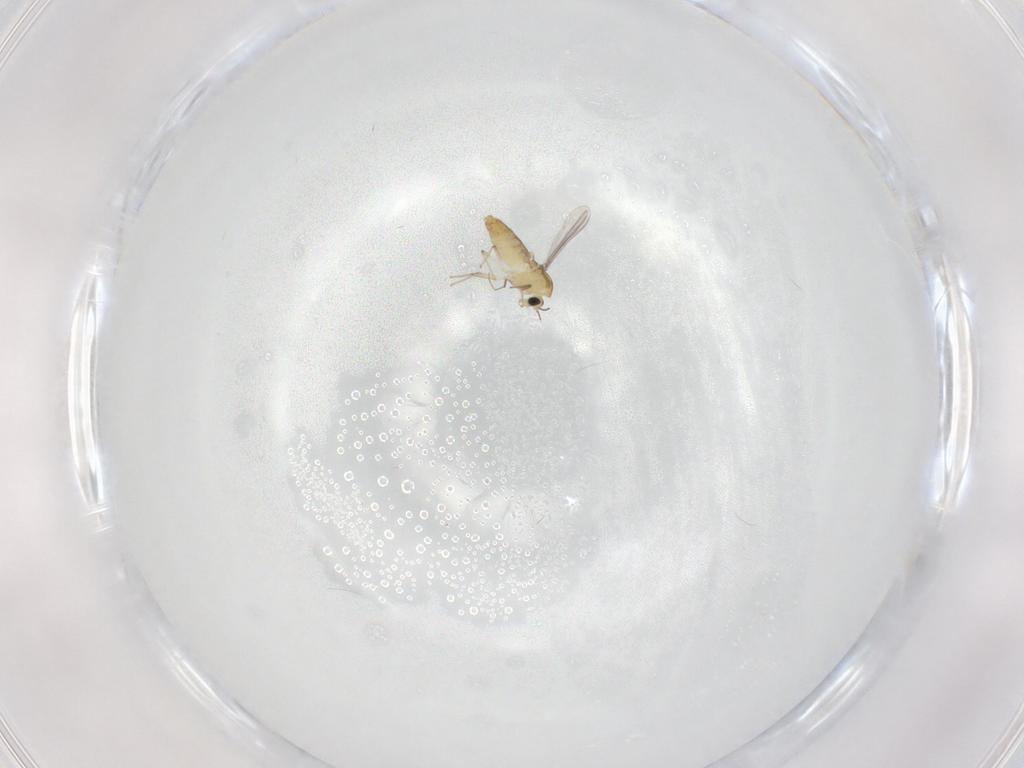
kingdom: Animalia
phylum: Arthropoda
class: Insecta
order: Diptera
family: Chironomidae
